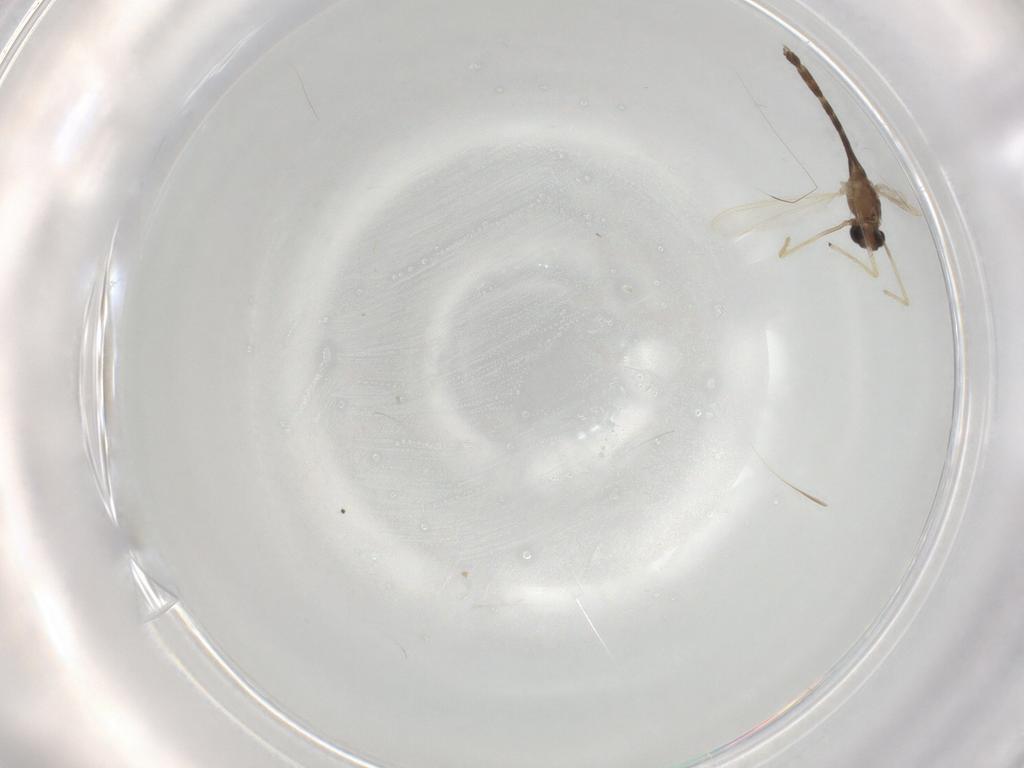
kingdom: Animalia
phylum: Arthropoda
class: Insecta
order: Diptera
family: Chironomidae
